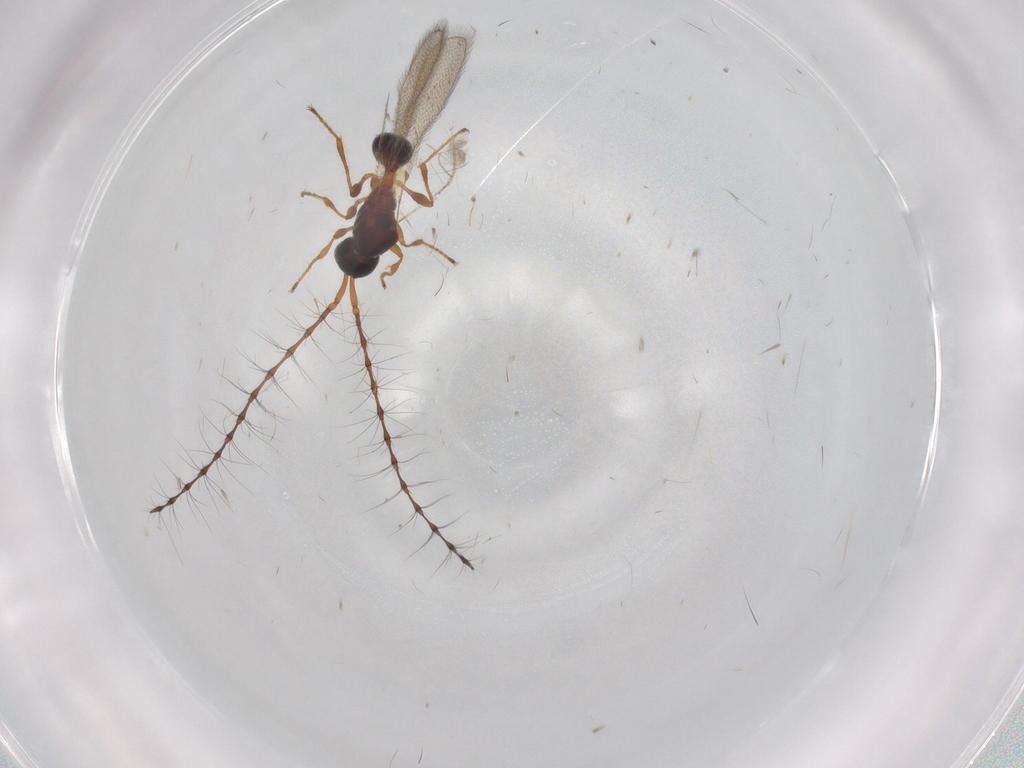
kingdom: Animalia
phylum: Arthropoda
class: Insecta
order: Hymenoptera
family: Diapriidae
